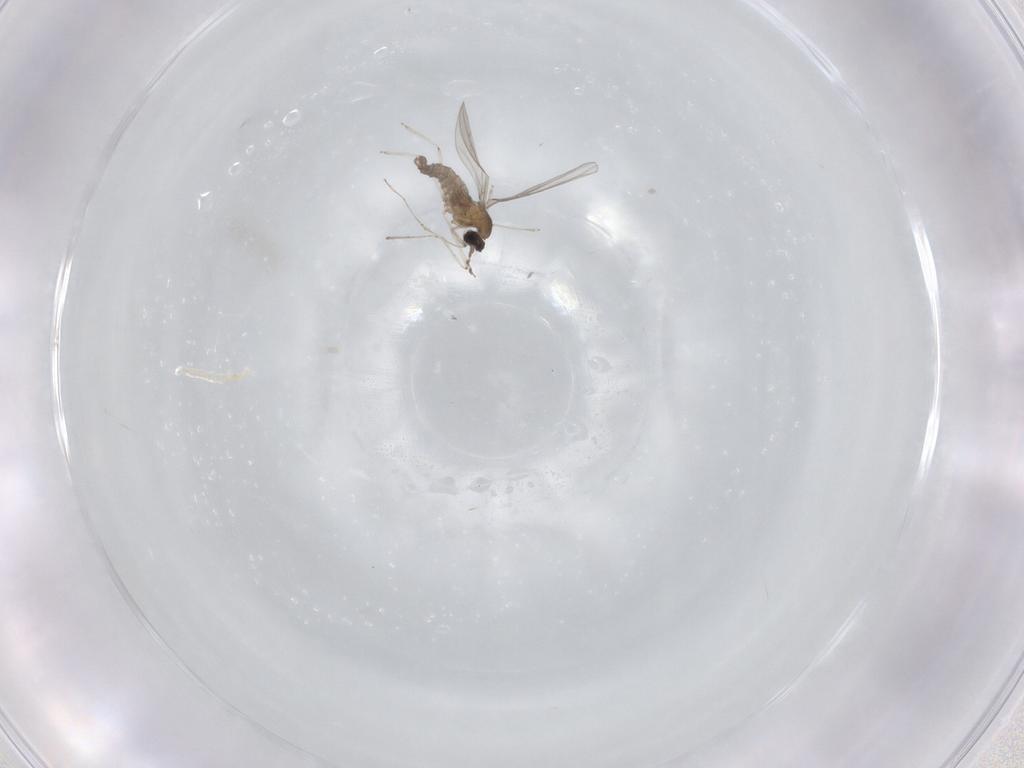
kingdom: Animalia
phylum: Arthropoda
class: Insecta
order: Diptera
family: Cecidomyiidae
